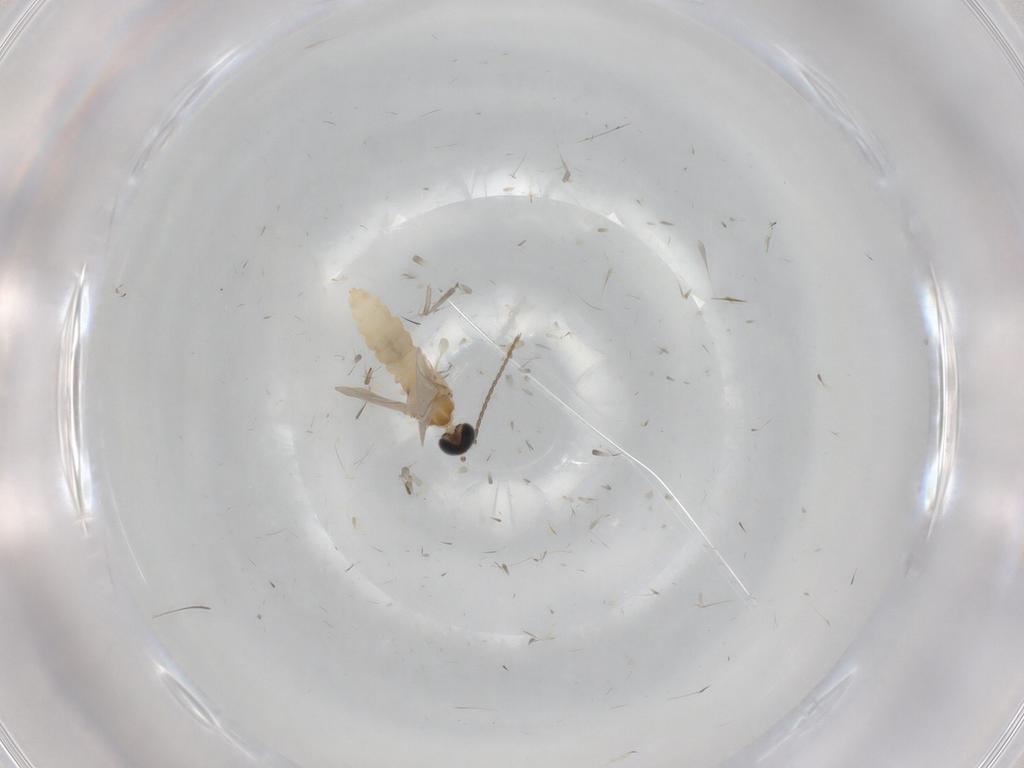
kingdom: Animalia
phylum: Arthropoda
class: Insecta
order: Diptera
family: Cecidomyiidae
